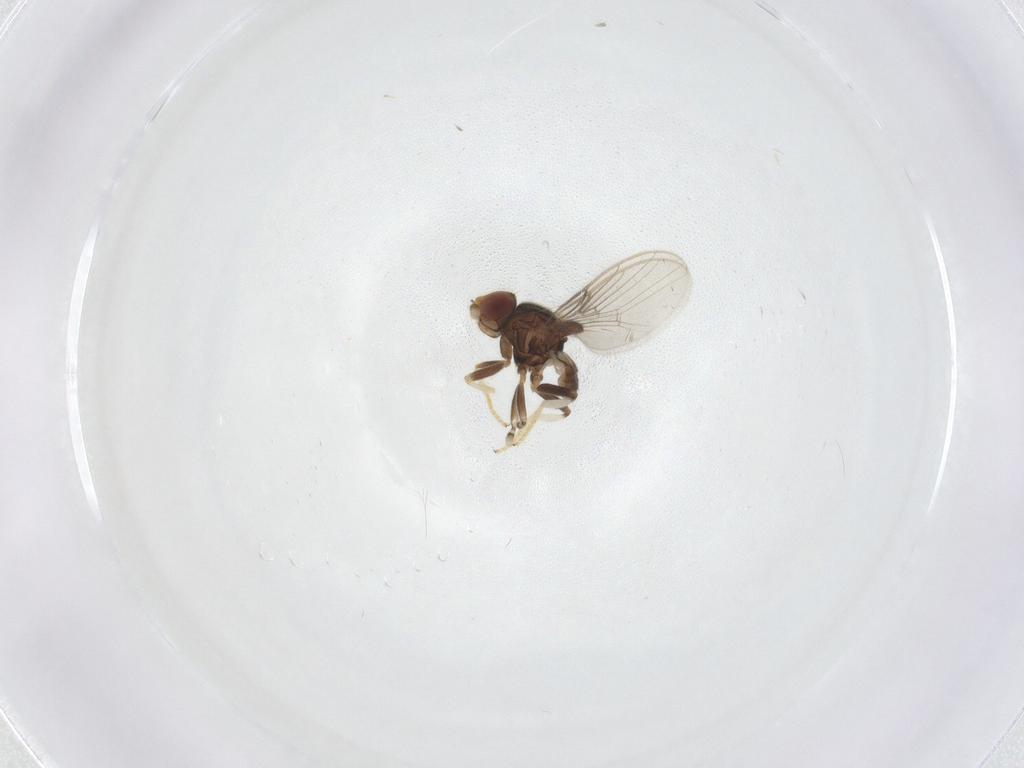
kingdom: Animalia
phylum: Arthropoda
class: Insecta
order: Diptera
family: Chloropidae
